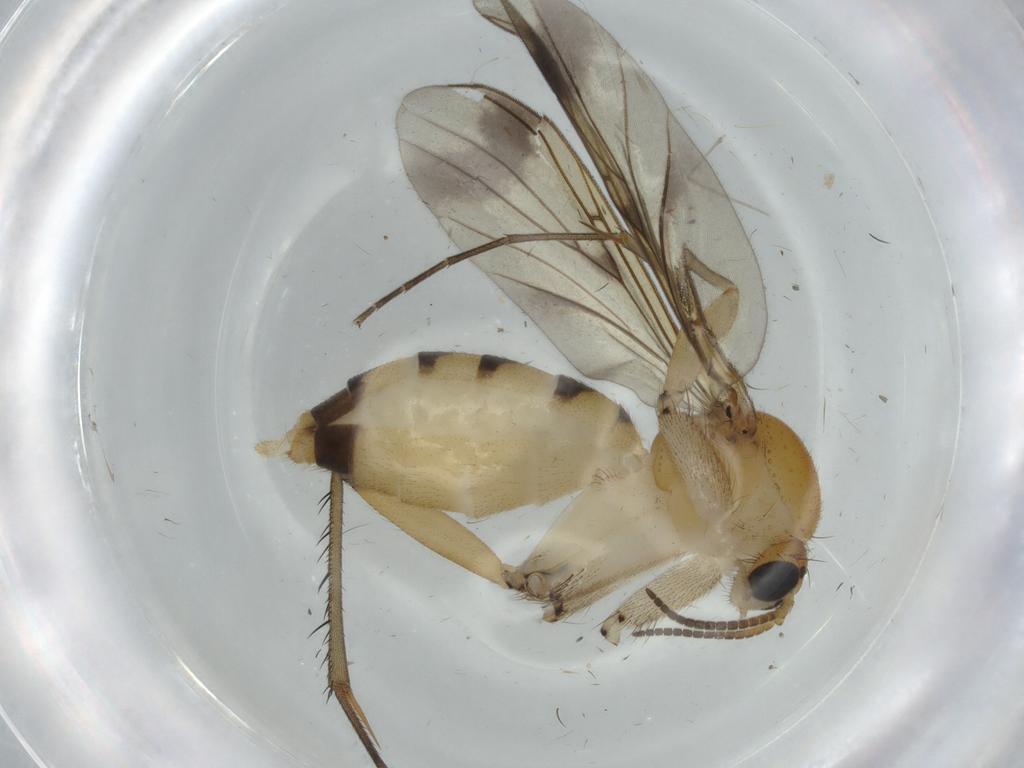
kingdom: Animalia
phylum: Arthropoda
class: Insecta
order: Diptera
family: Mycetophilidae
